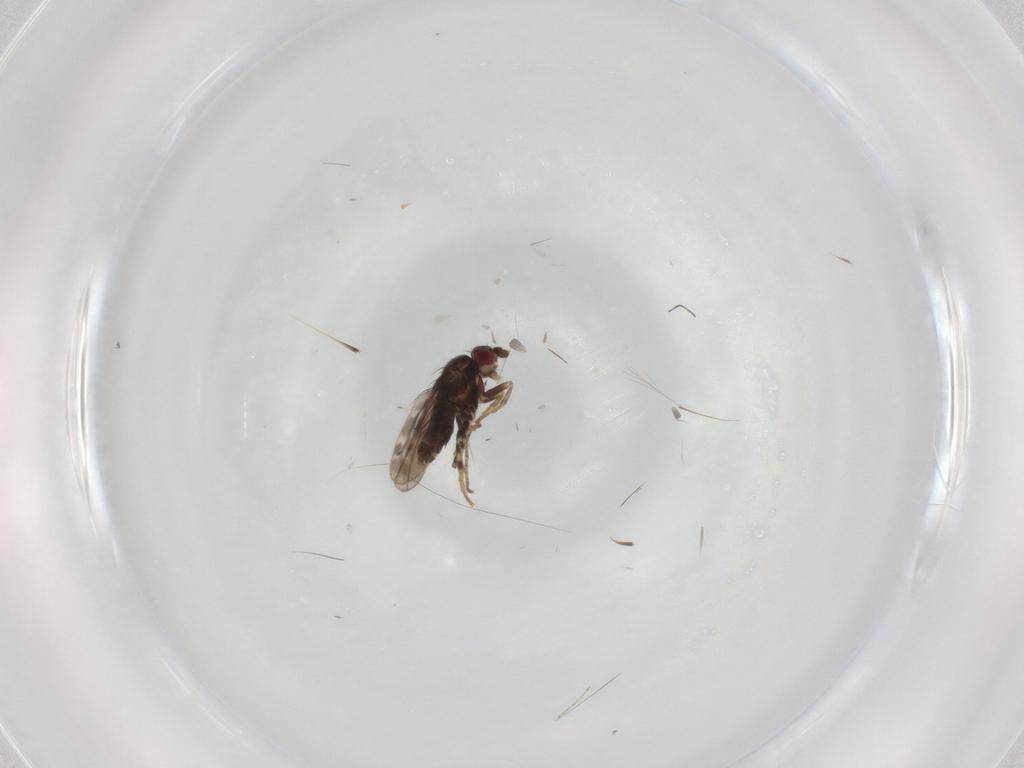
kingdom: Animalia
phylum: Arthropoda
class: Insecta
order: Diptera
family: Sphaeroceridae
